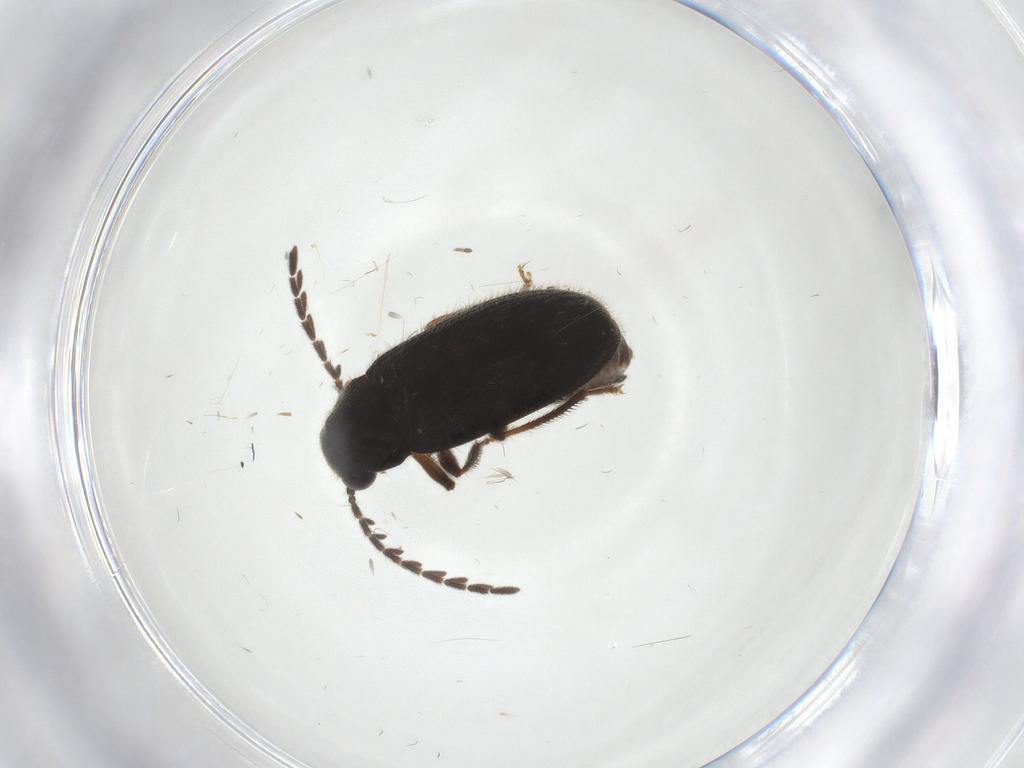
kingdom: Animalia
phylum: Arthropoda
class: Insecta
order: Coleoptera
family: Ptilodactylidae
